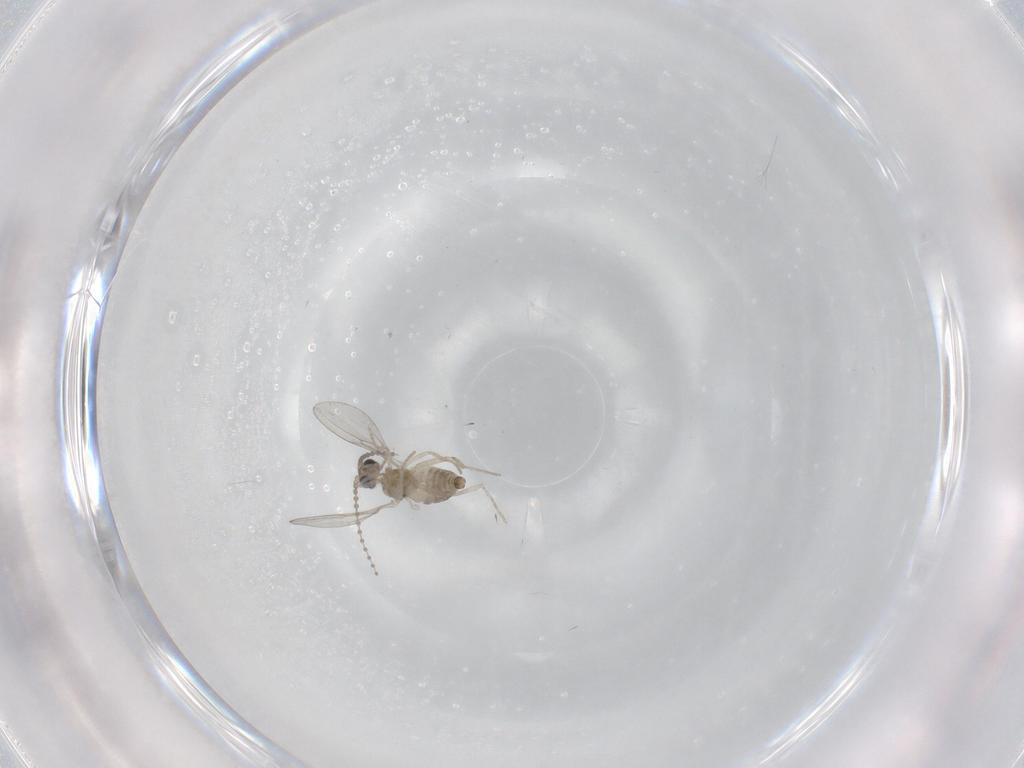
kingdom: Animalia
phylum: Arthropoda
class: Insecta
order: Diptera
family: Cecidomyiidae
